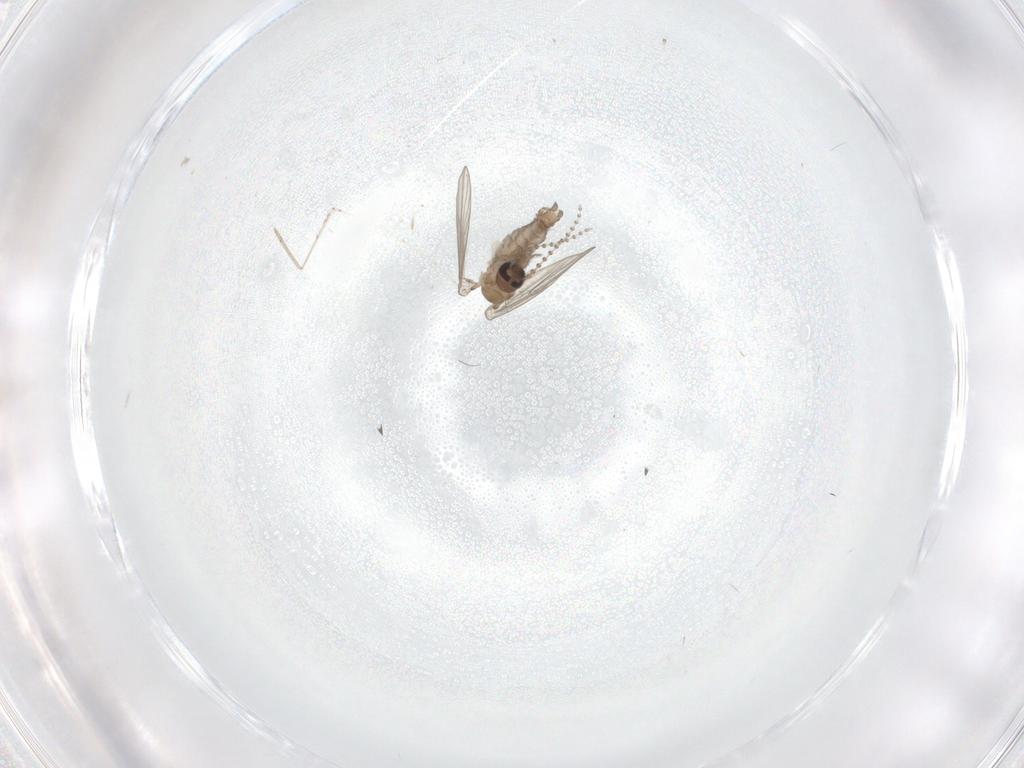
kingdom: Animalia
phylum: Arthropoda
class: Insecta
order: Diptera
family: Psychodidae
